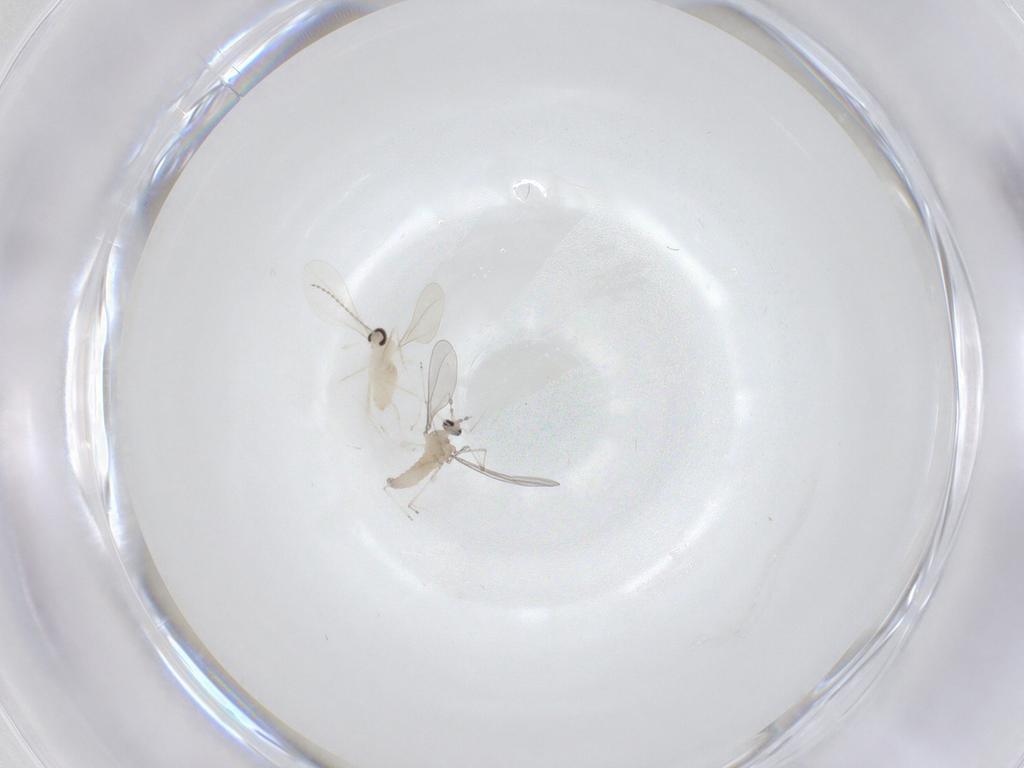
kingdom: Animalia
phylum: Arthropoda
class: Insecta
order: Diptera
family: Cecidomyiidae
